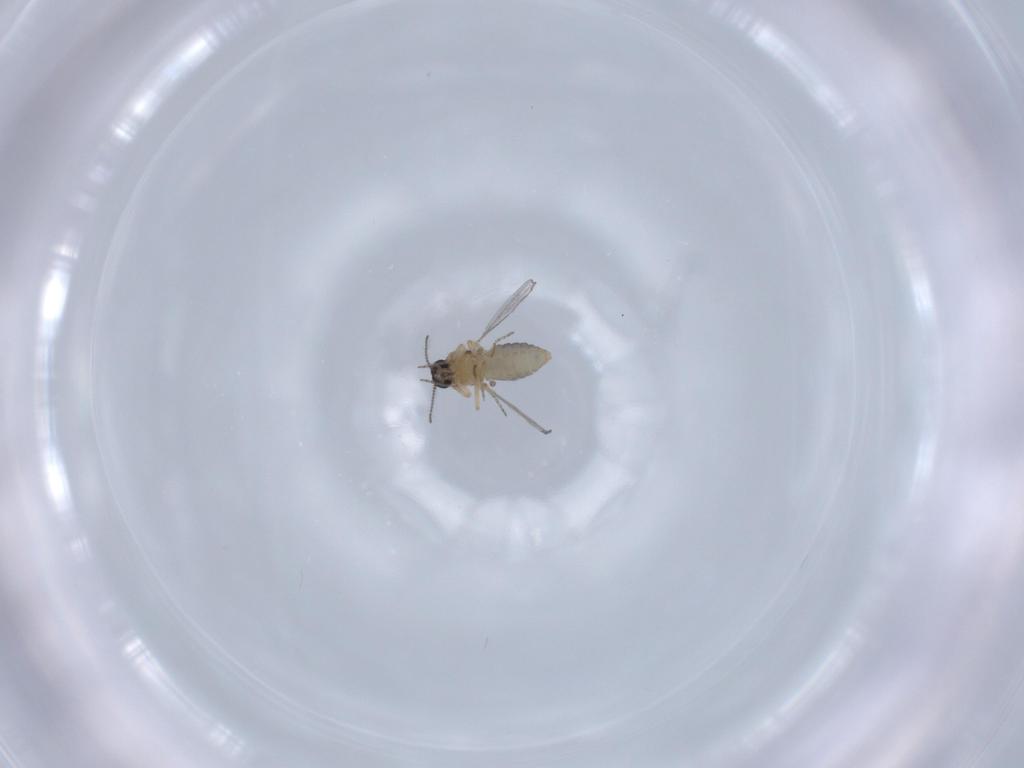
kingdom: Animalia
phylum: Arthropoda
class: Insecta
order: Diptera
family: Ceratopogonidae
